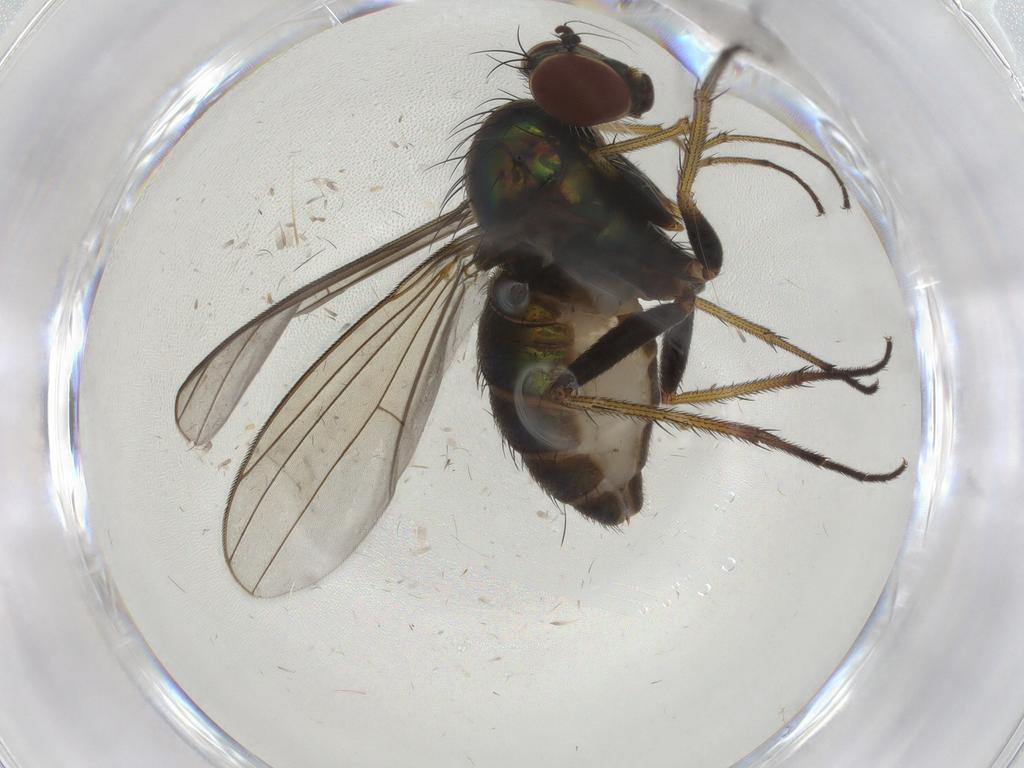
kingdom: Animalia
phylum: Arthropoda
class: Insecta
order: Diptera
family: Dolichopodidae
